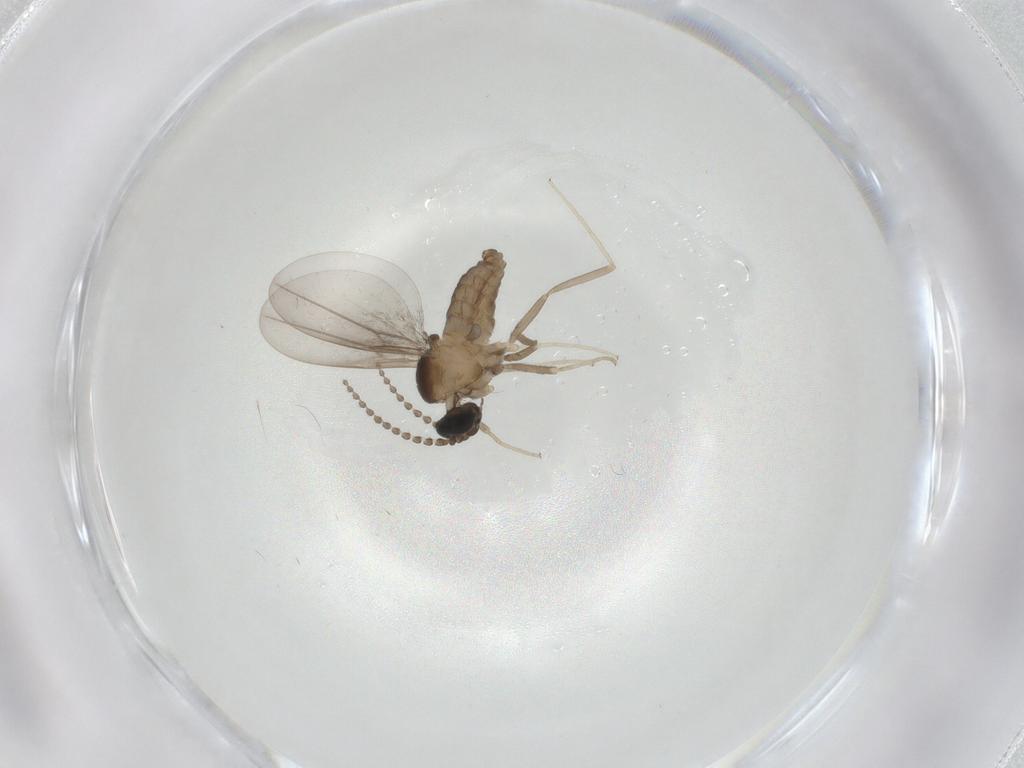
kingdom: Animalia
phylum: Arthropoda
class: Insecta
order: Diptera
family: Cecidomyiidae
